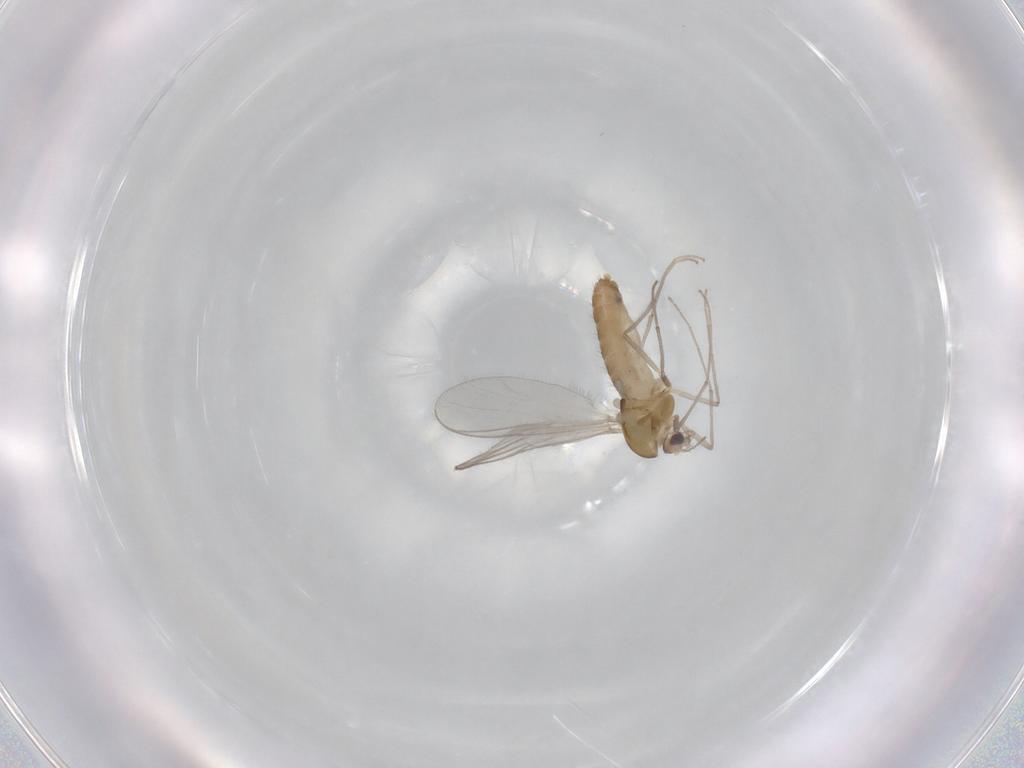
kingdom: Animalia
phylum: Arthropoda
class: Insecta
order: Diptera
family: Chironomidae
